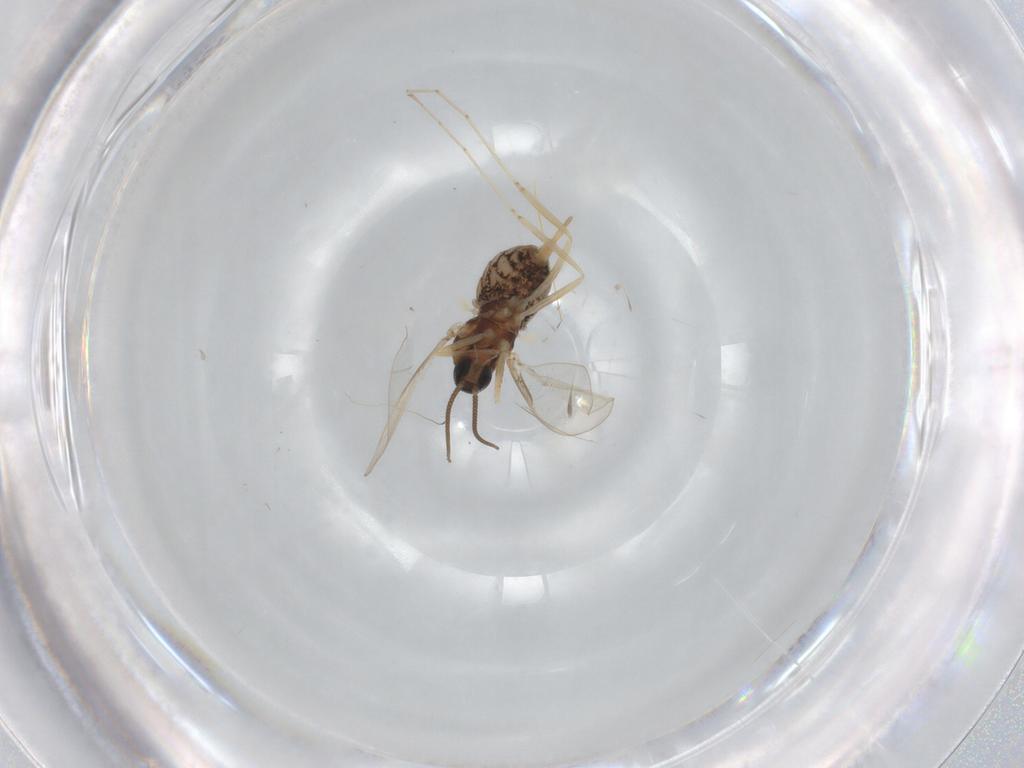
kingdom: Animalia
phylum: Arthropoda
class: Insecta
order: Diptera
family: Cecidomyiidae
